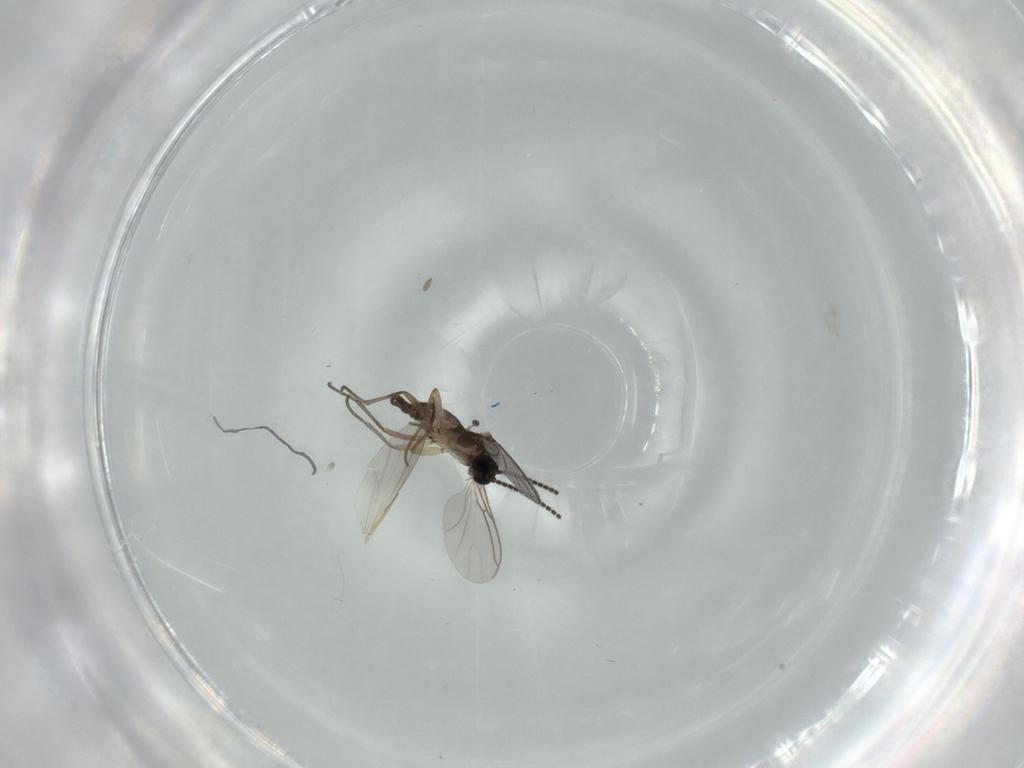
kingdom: Animalia
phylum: Arthropoda
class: Insecta
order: Diptera
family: Sciaridae
